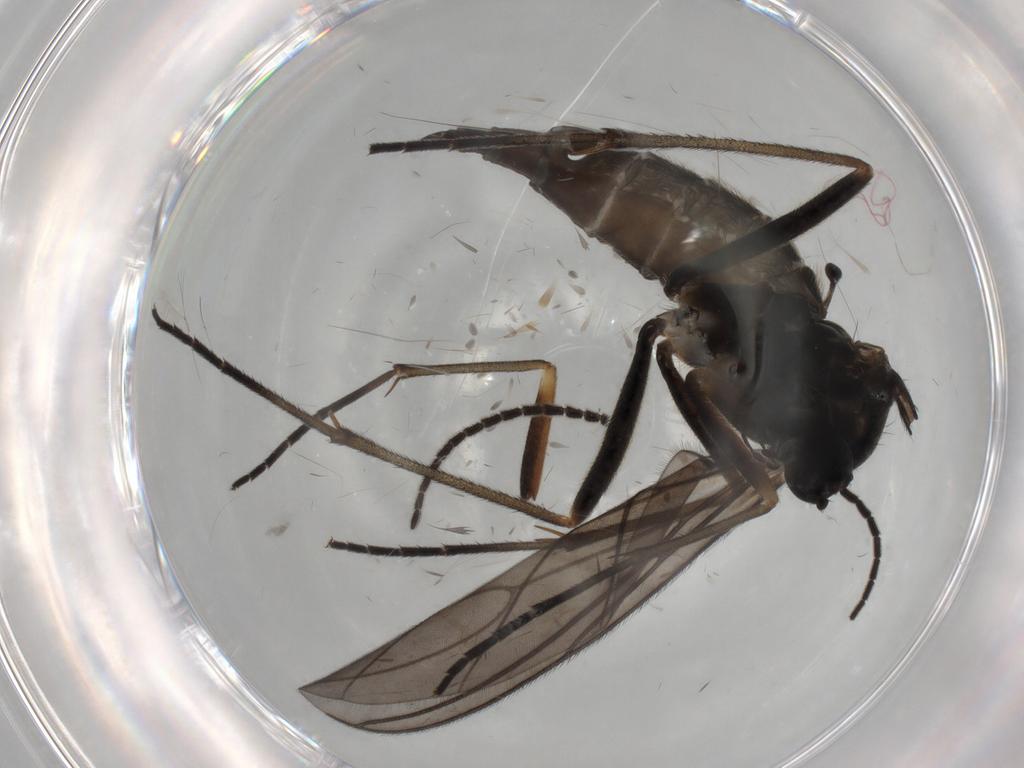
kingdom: Animalia
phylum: Arthropoda
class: Insecta
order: Diptera
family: Sciaridae
